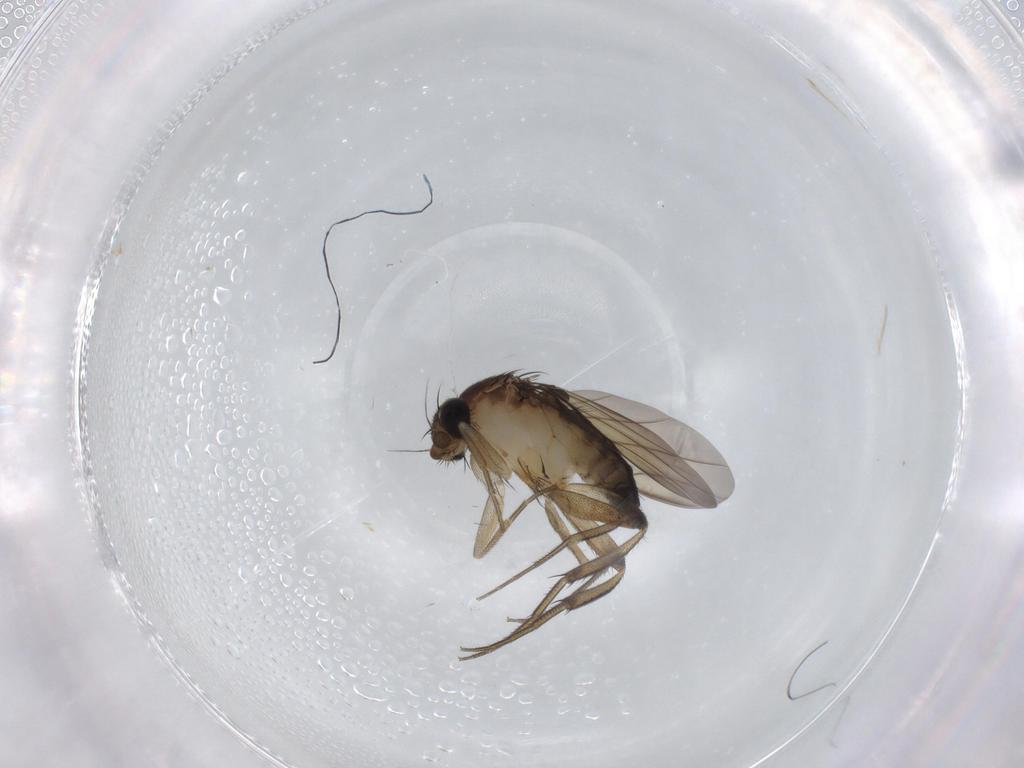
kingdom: Animalia
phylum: Arthropoda
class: Insecta
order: Diptera
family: Phoridae
